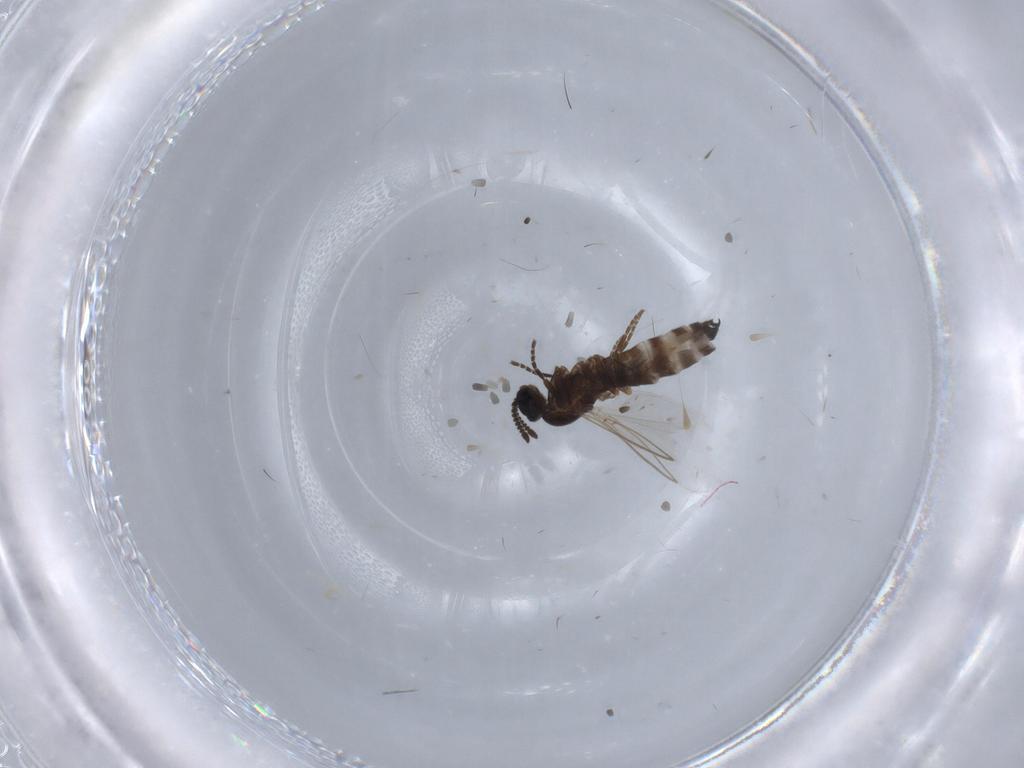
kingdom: Animalia
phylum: Arthropoda
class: Insecta
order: Diptera
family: Scatopsidae
